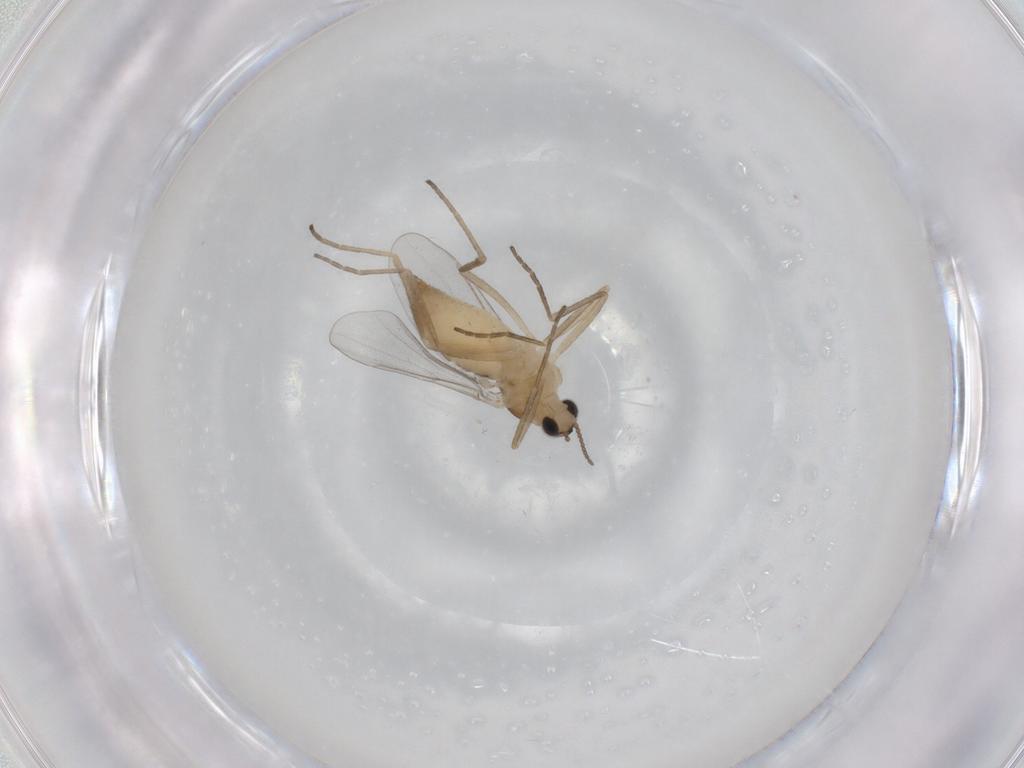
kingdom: Animalia
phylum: Arthropoda
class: Insecta
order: Diptera
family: Cecidomyiidae
